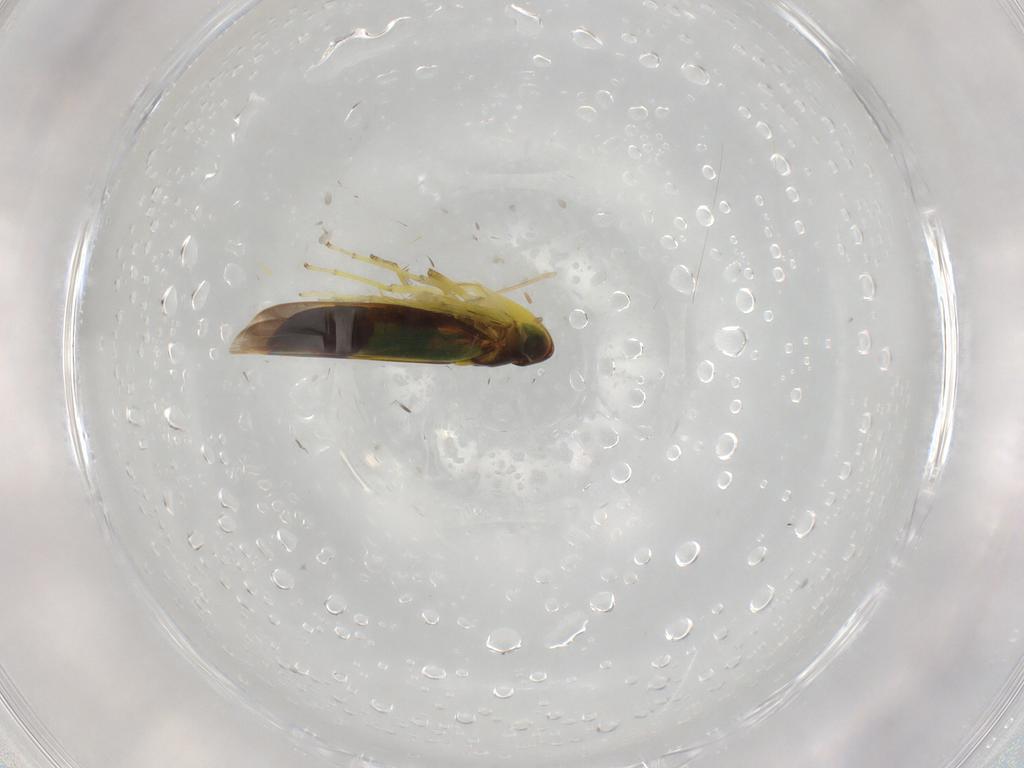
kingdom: Animalia
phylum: Arthropoda
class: Insecta
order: Hemiptera
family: Cicadellidae
